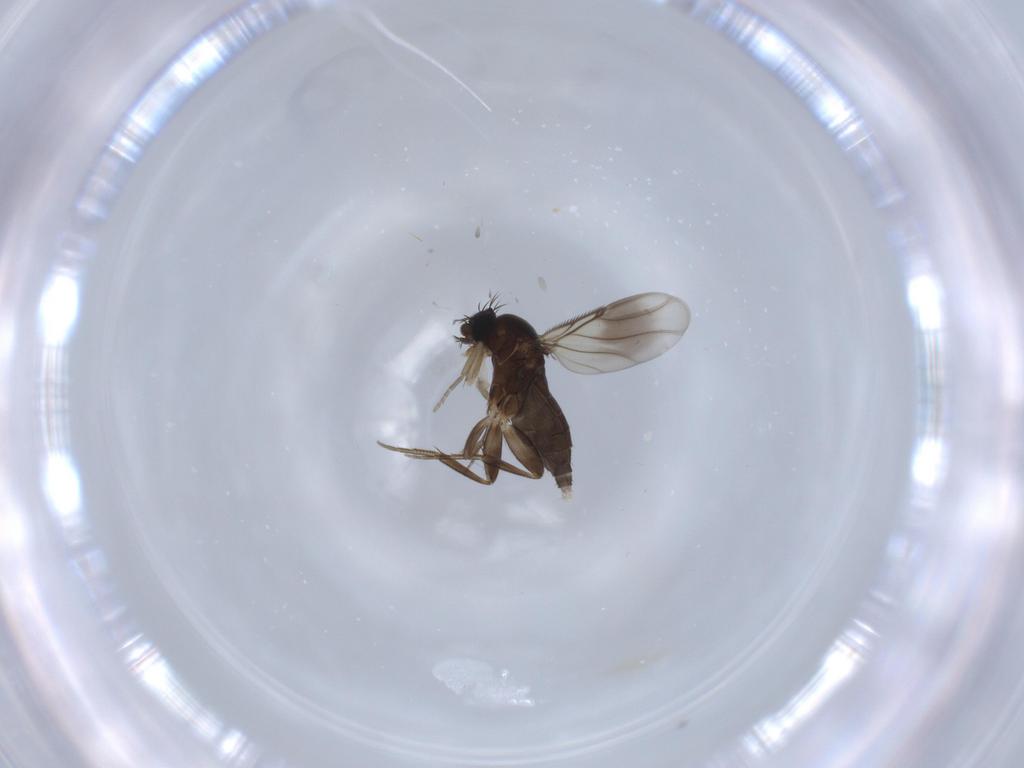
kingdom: Animalia
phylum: Arthropoda
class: Insecta
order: Diptera
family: Phoridae
